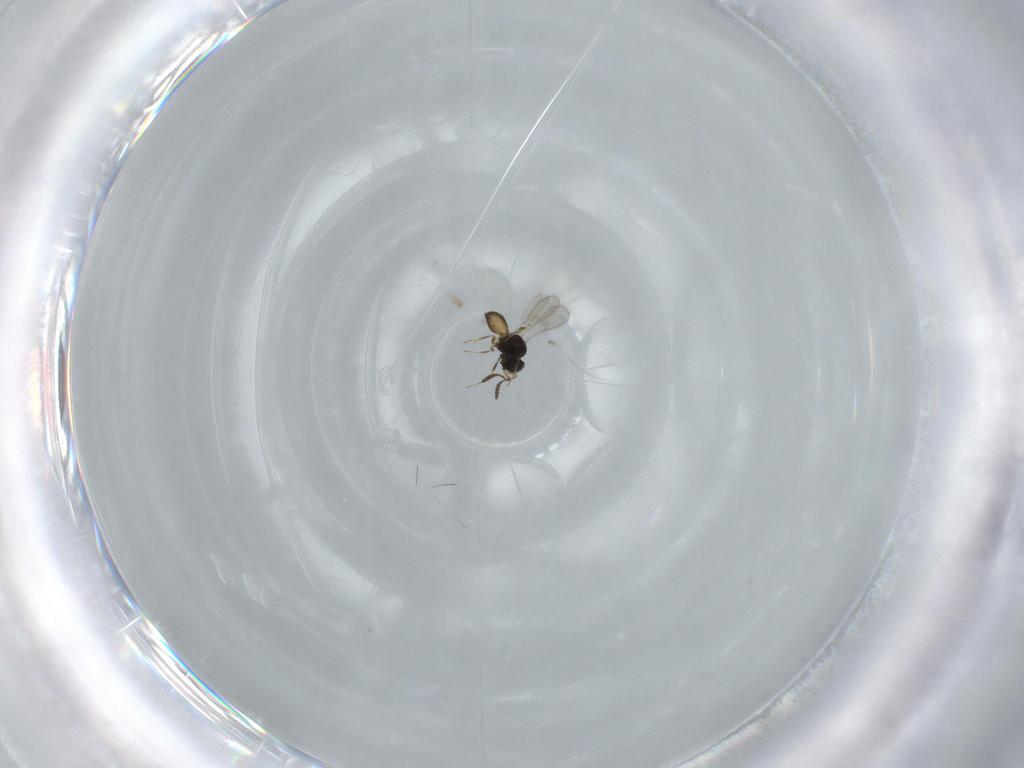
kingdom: Animalia
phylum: Arthropoda
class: Insecta
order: Hymenoptera
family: Scelionidae
